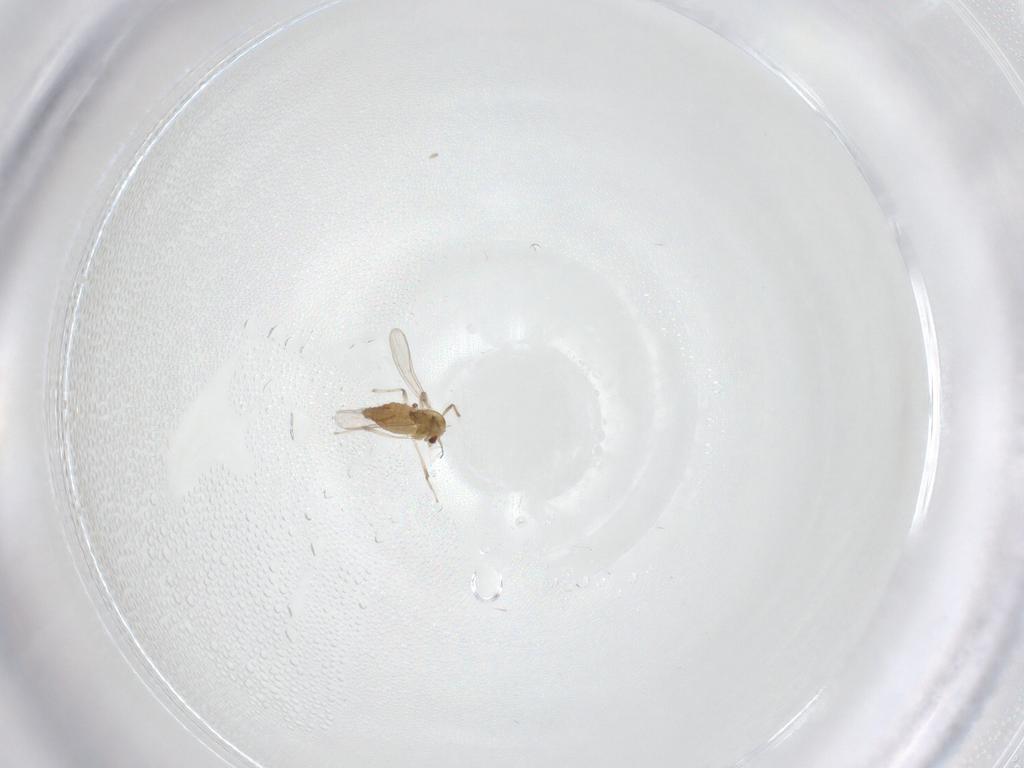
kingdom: Animalia
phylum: Arthropoda
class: Insecta
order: Diptera
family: Chironomidae
